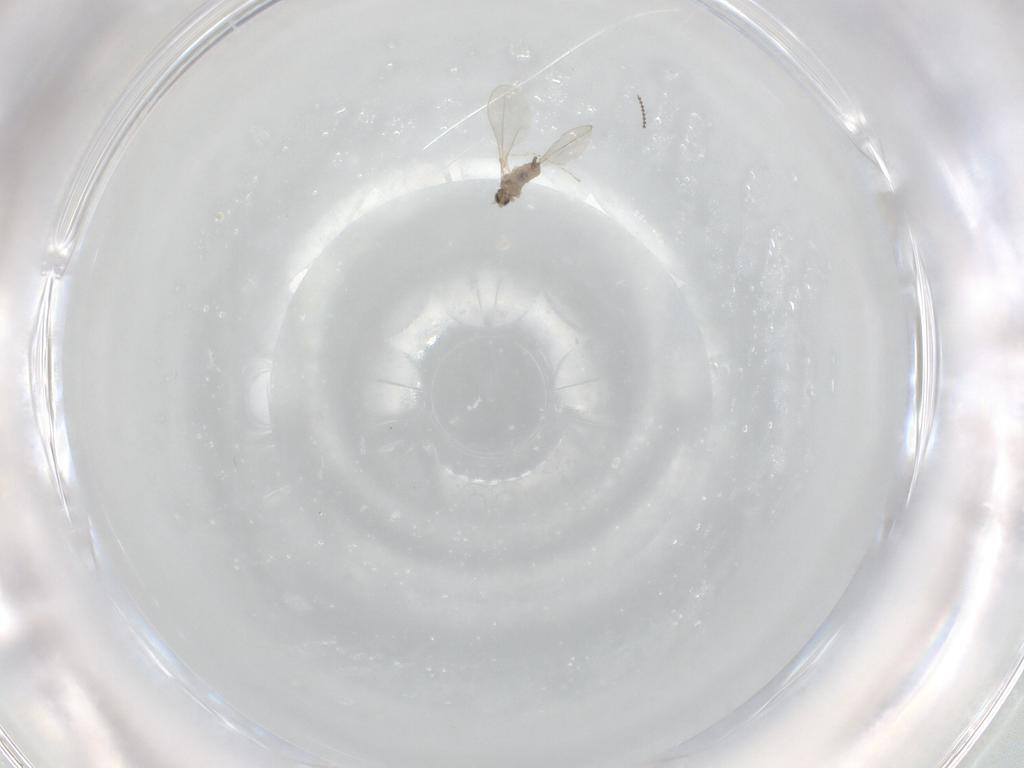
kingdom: Animalia
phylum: Arthropoda
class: Insecta
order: Diptera
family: Cecidomyiidae
